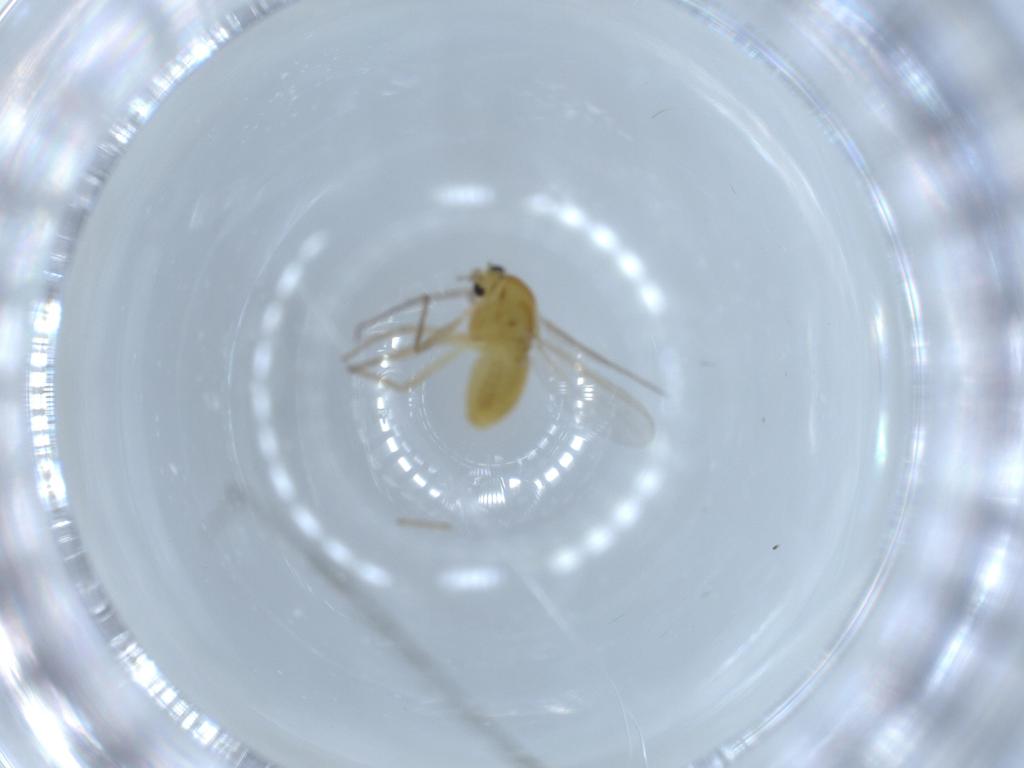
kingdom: Animalia
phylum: Arthropoda
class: Insecta
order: Diptera
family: Chironomidae
